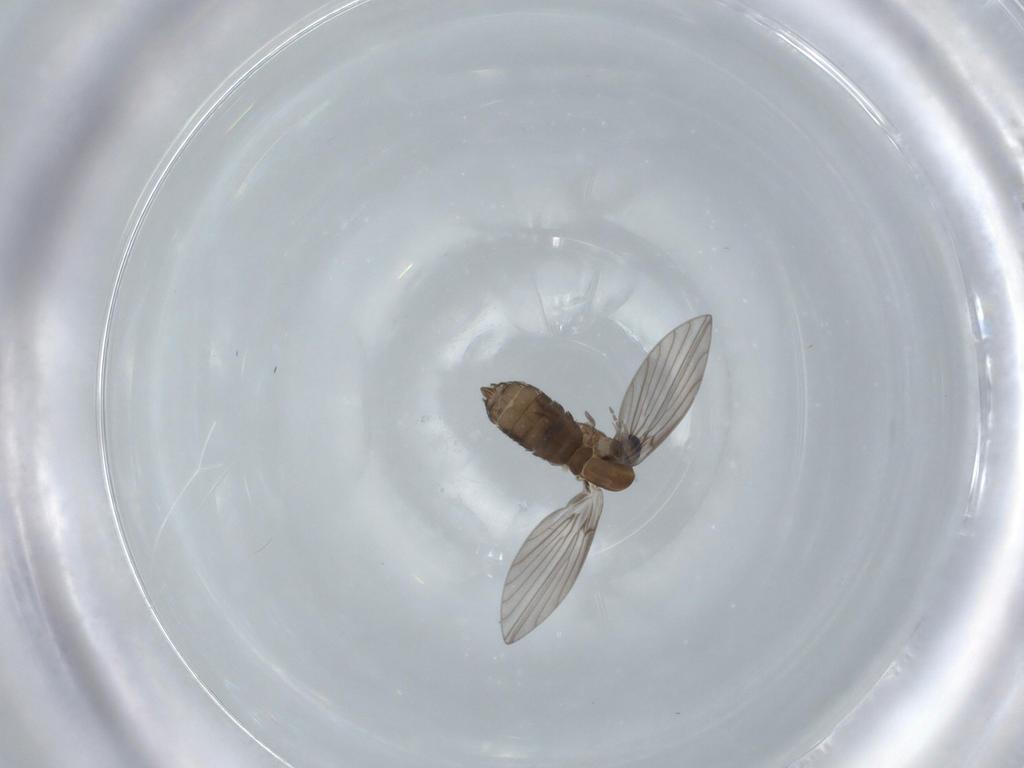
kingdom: Animalia
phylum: Arthropoda
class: Insecta
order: Diptera
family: Psychodidae
